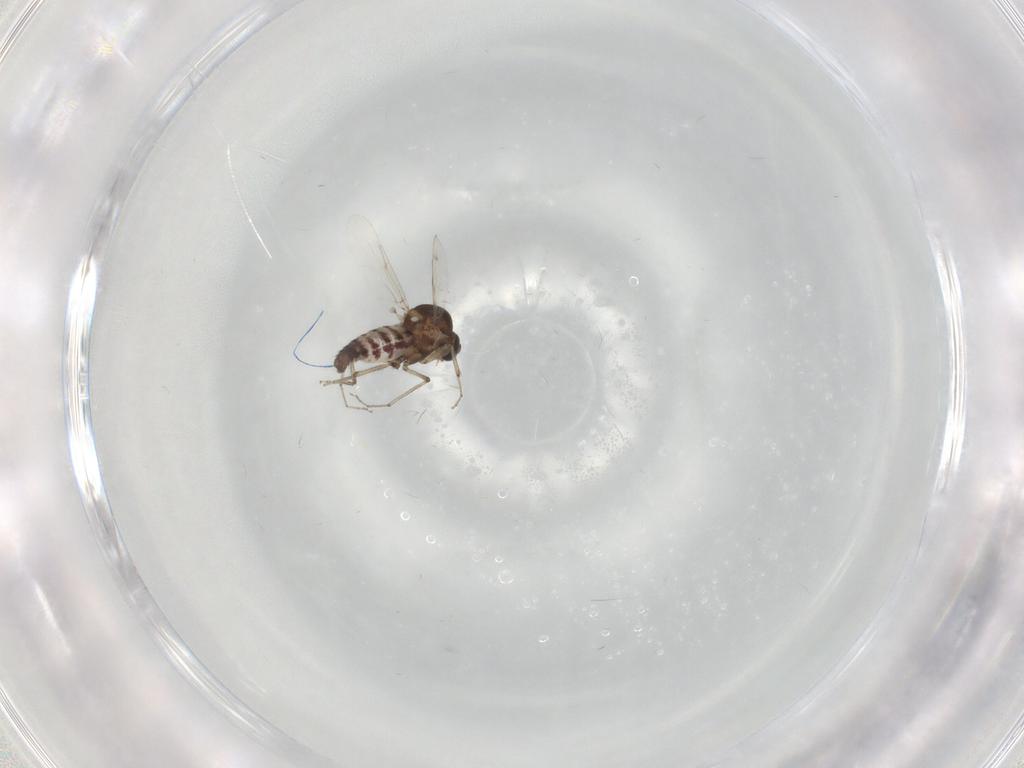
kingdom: Animalia
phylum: Arthropoda
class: Insecta
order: Diptera
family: Ceratopogonidae
